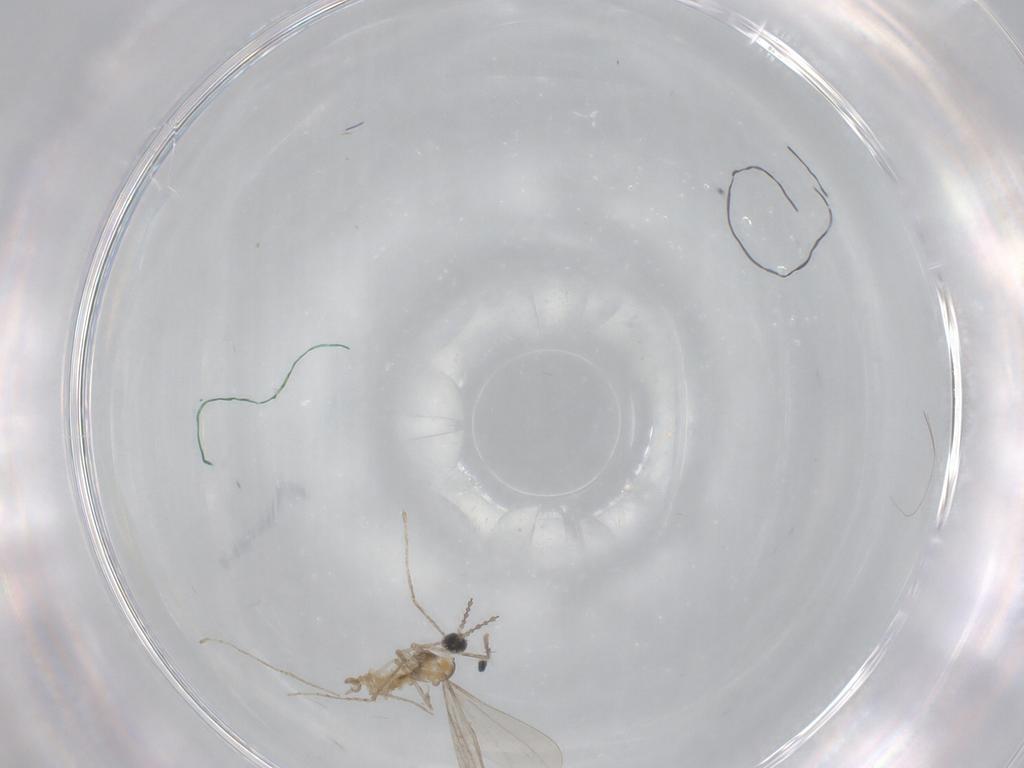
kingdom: Animalia
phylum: Arthropoda
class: Insecta
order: Diptera
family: Chironomidae
